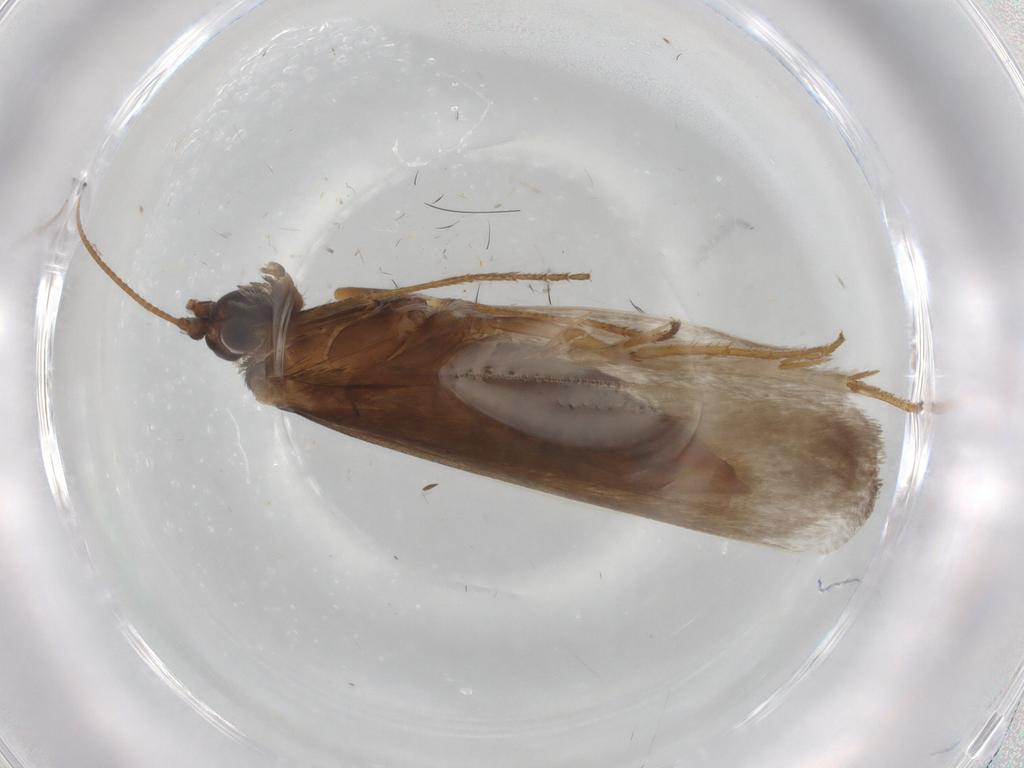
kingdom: Animalia
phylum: Arthropoda
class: Insecta
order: Lepidoptera
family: Adelidae
